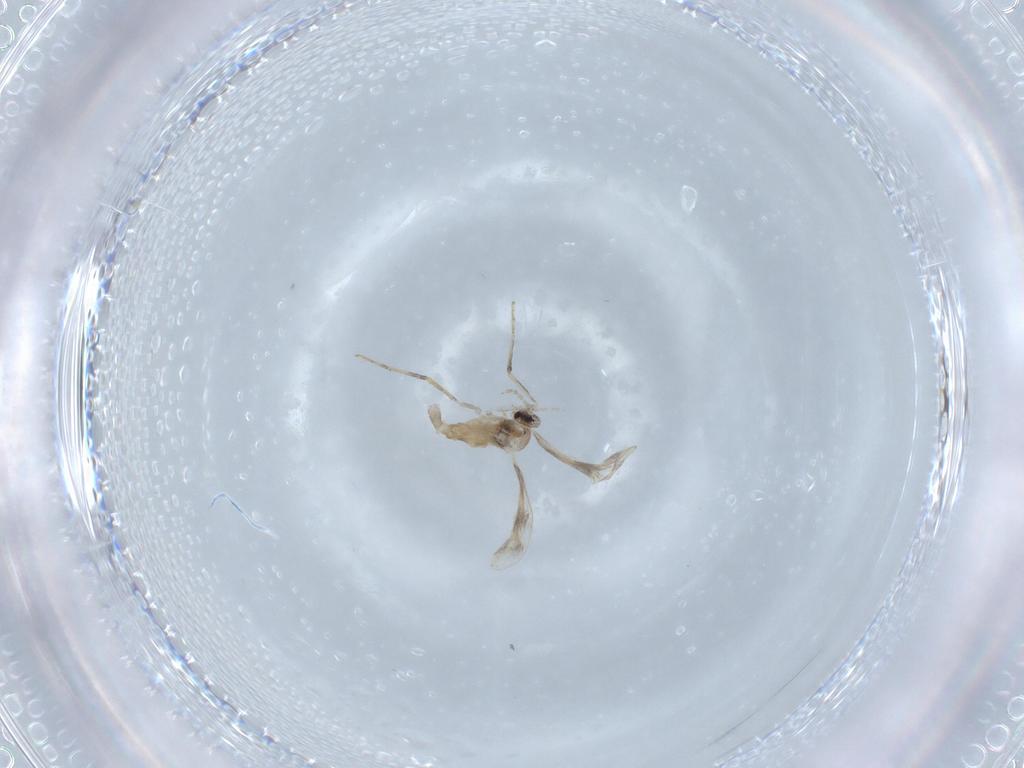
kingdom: Animalia
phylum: Arthropoda
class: Insecta
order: Diptera
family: Cecidomyiidae
